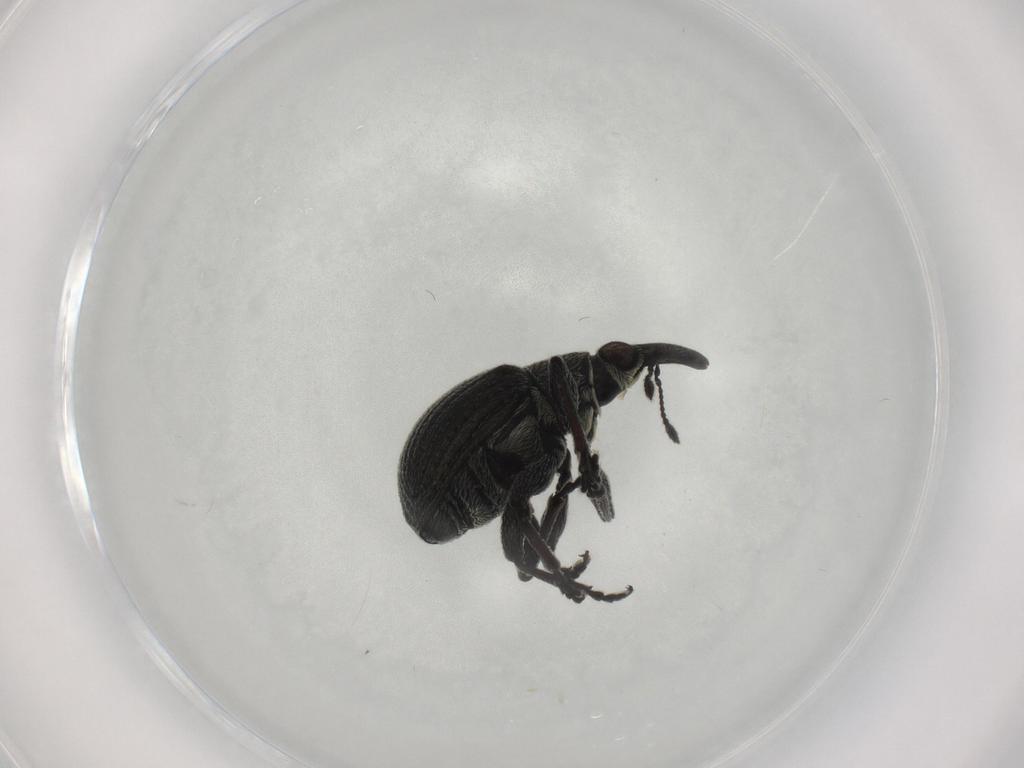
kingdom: Animalia
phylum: Arthropoda
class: Insecta
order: Coleoptera
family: Brentidae
